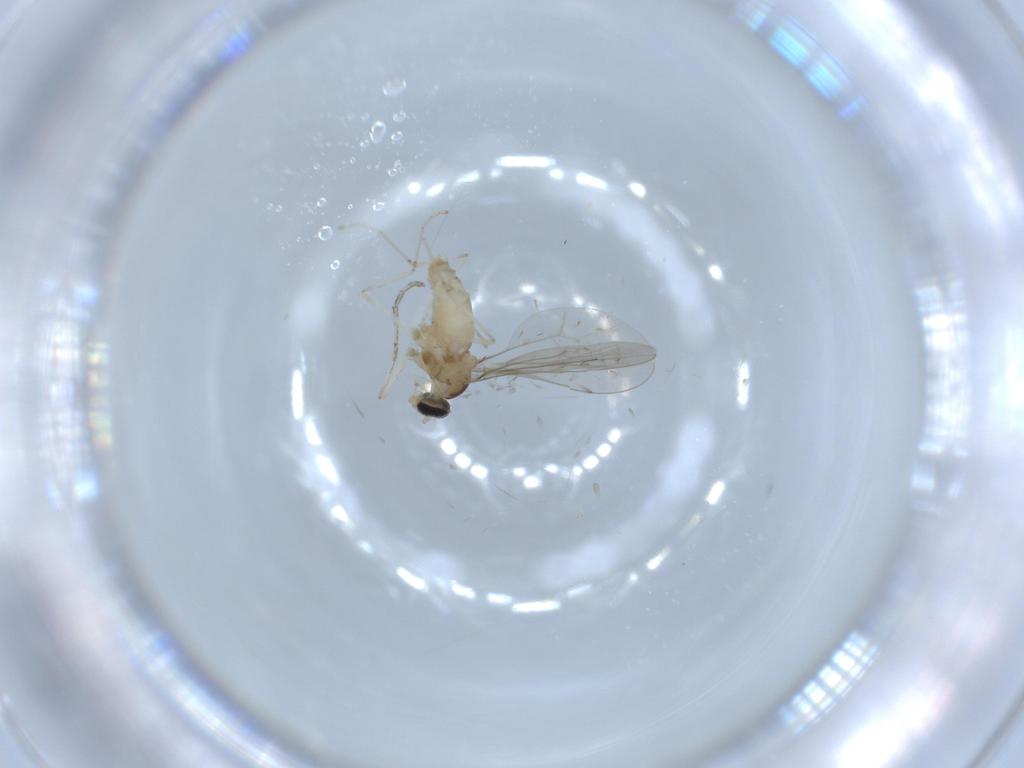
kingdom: Animalia
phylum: Arthropoda
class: Insecta
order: Diptera
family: Cecidomyiidae
